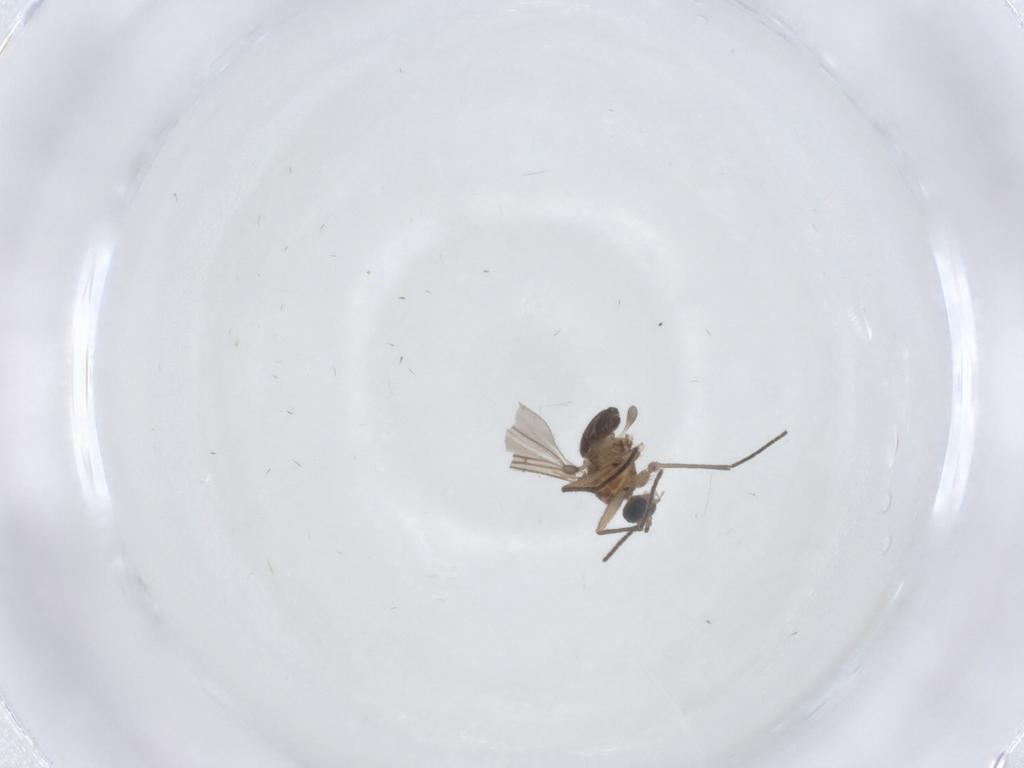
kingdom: Animalia
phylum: Arthropoda
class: Insecta
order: Diptera
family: Sciaridae
